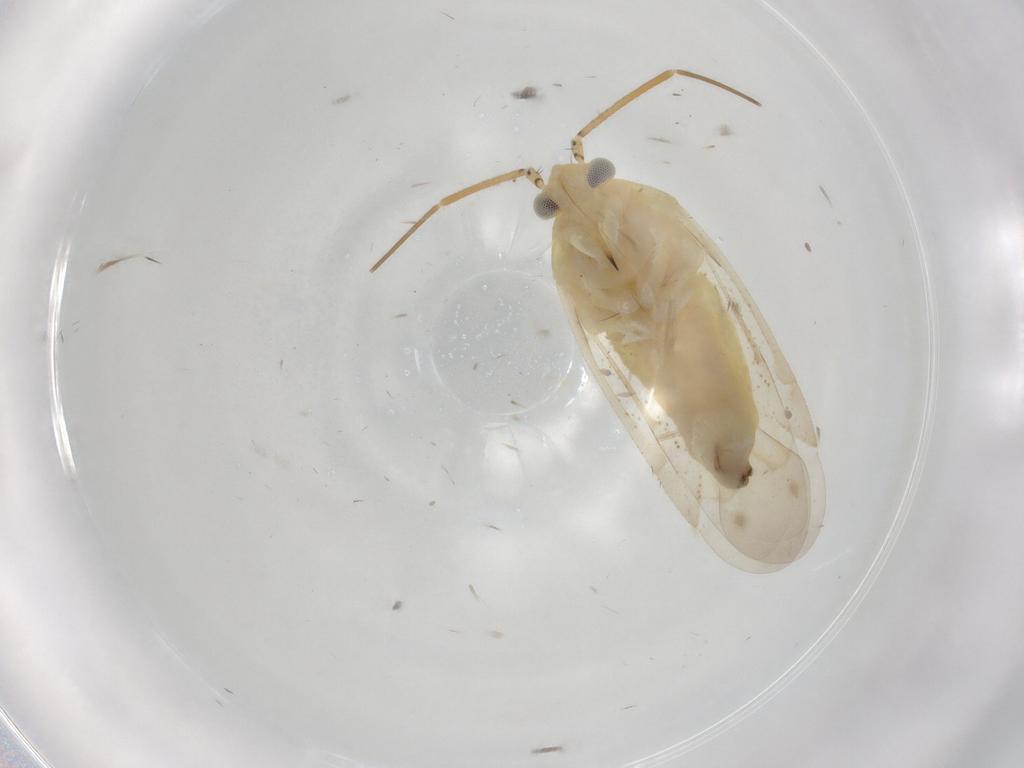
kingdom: Animalia
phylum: Arthropoda
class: Insecta
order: Hemiptera
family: Miridae
